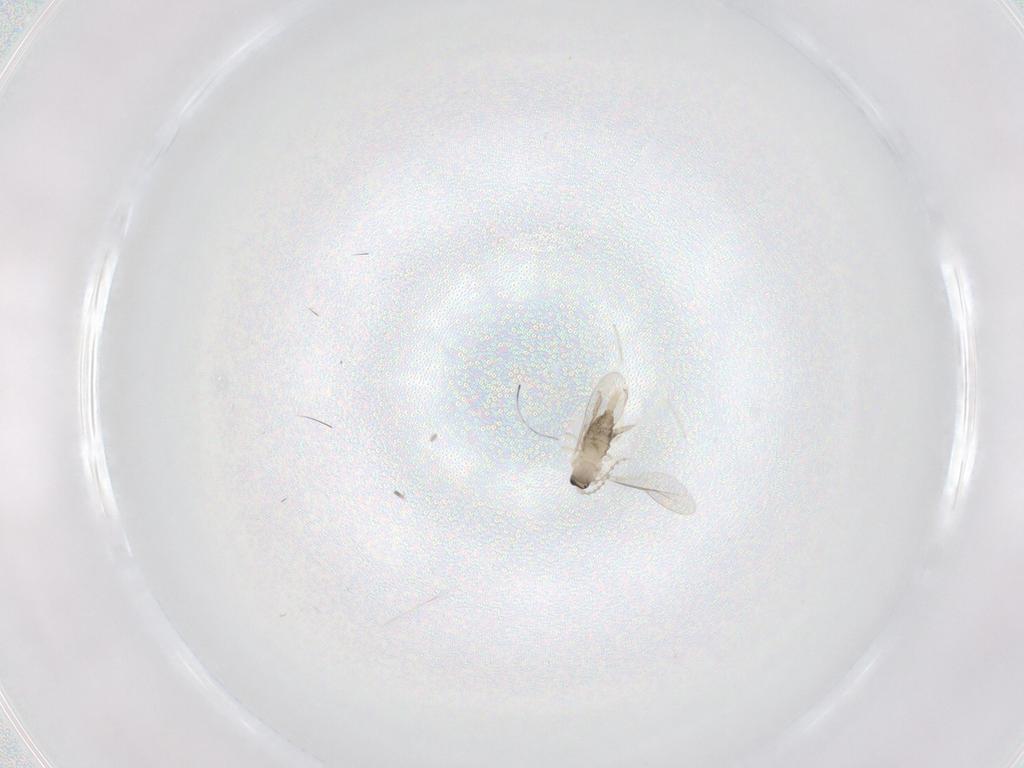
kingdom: Animalia
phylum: Arthropoda
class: Insecta
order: Diptera
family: Cecidomyiidae
